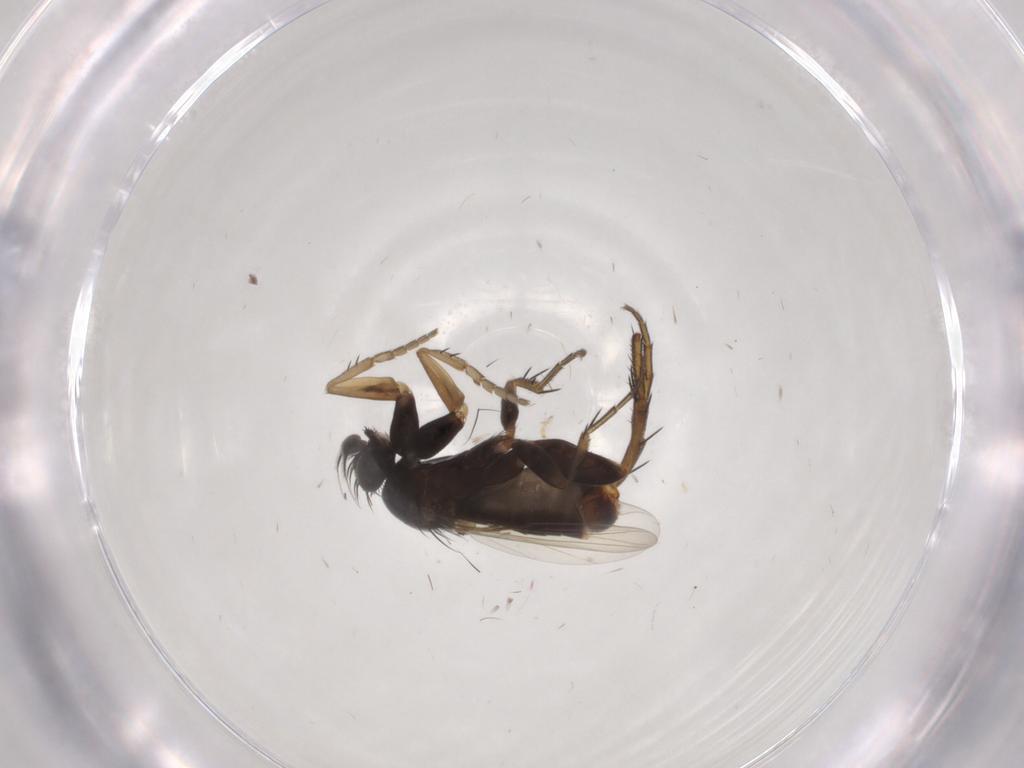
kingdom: Animalia
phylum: Arthropoda
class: Insecta
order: Diptera
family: Phoridae
